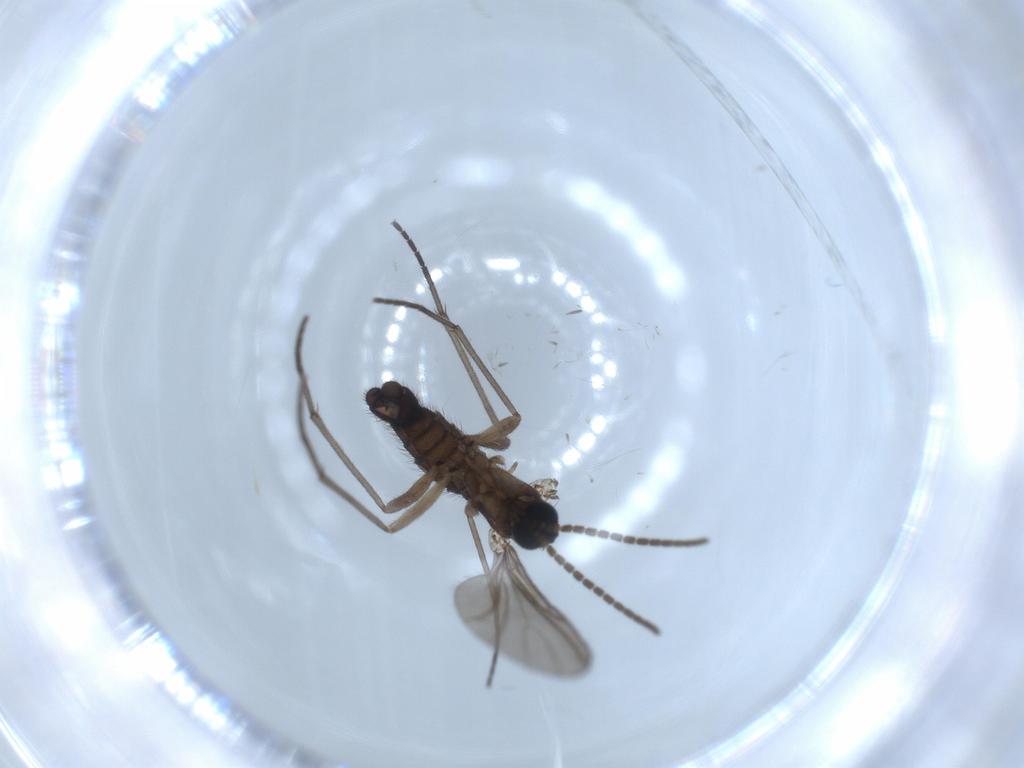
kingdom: Animalia
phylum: Arthropoda
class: Insecta
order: Diptera
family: Sciaridae
